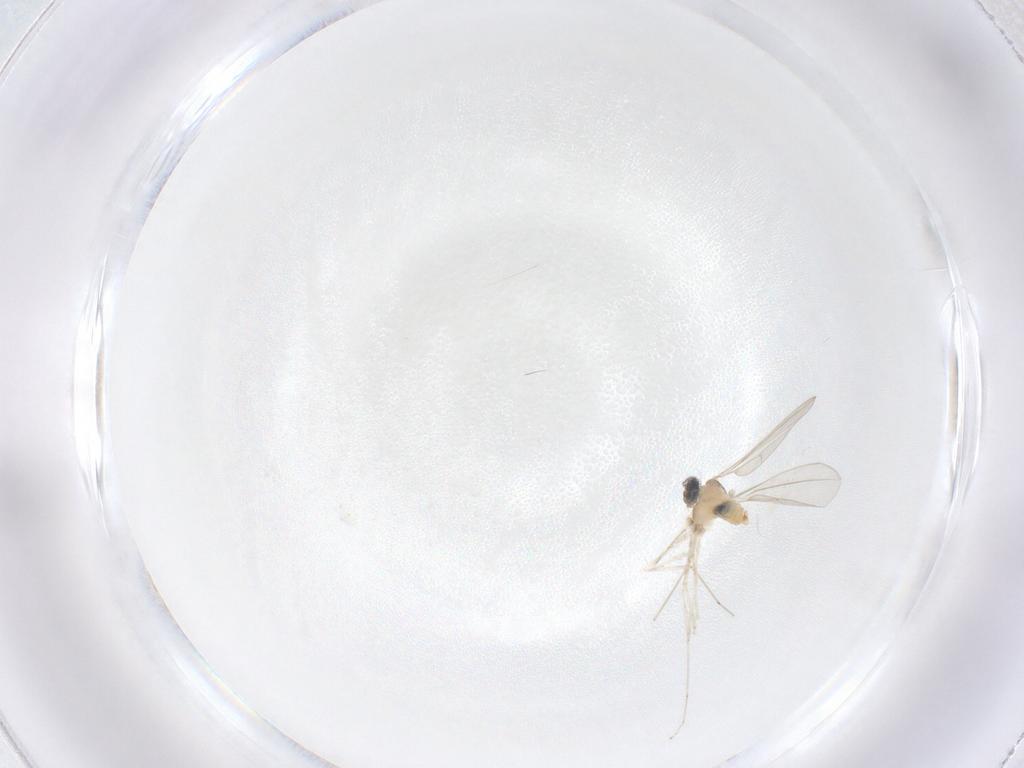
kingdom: Animalia
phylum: Arthropoda
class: Insecta
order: Diptera
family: Cecidomyiidae
